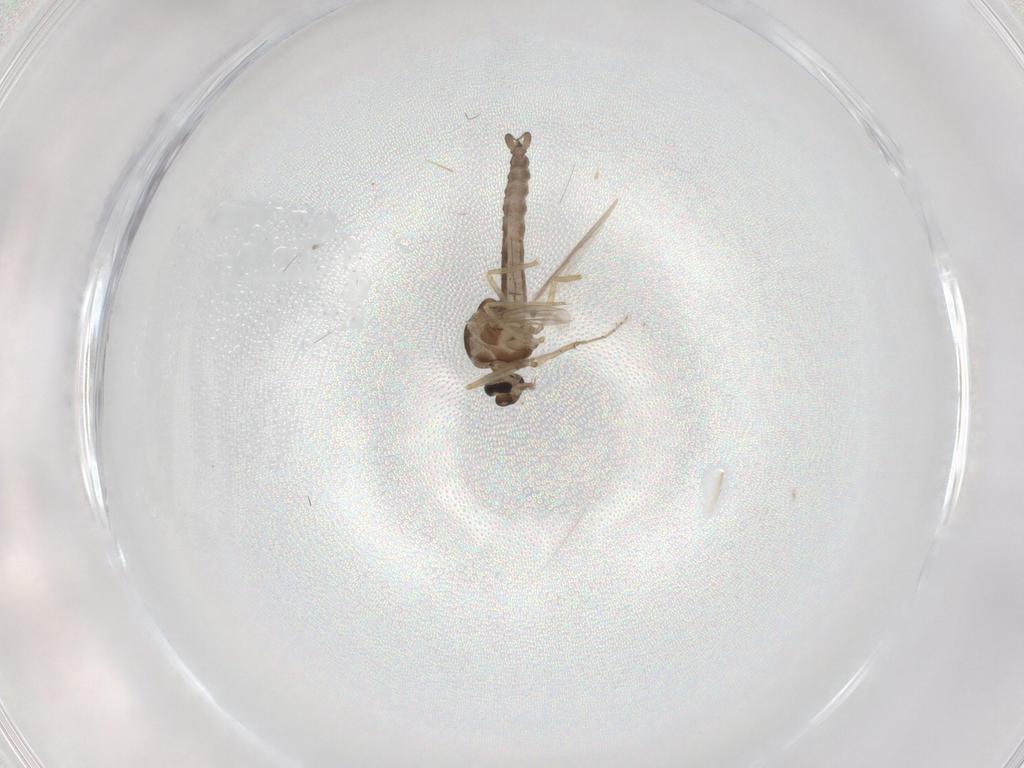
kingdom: Animalia
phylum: Arthropoda
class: Insecta
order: Diptera
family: Ceratopogonidae
